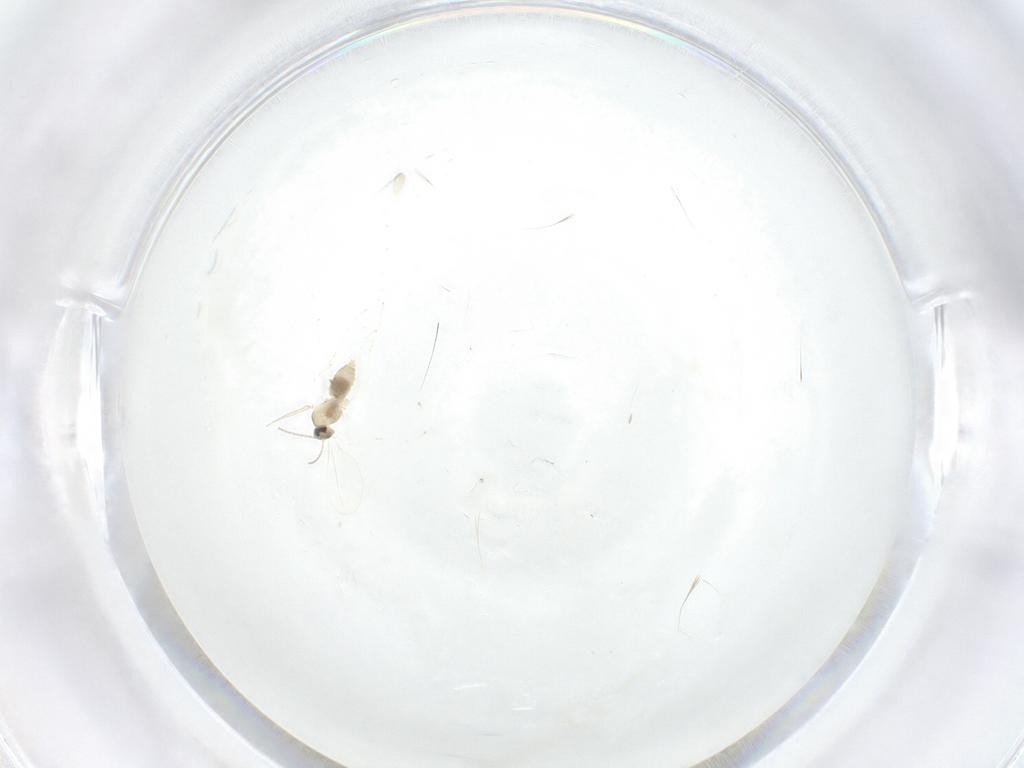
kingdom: Animalia
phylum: Arthropoda
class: Insecta
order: Diptera
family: Cecidomyiidae
